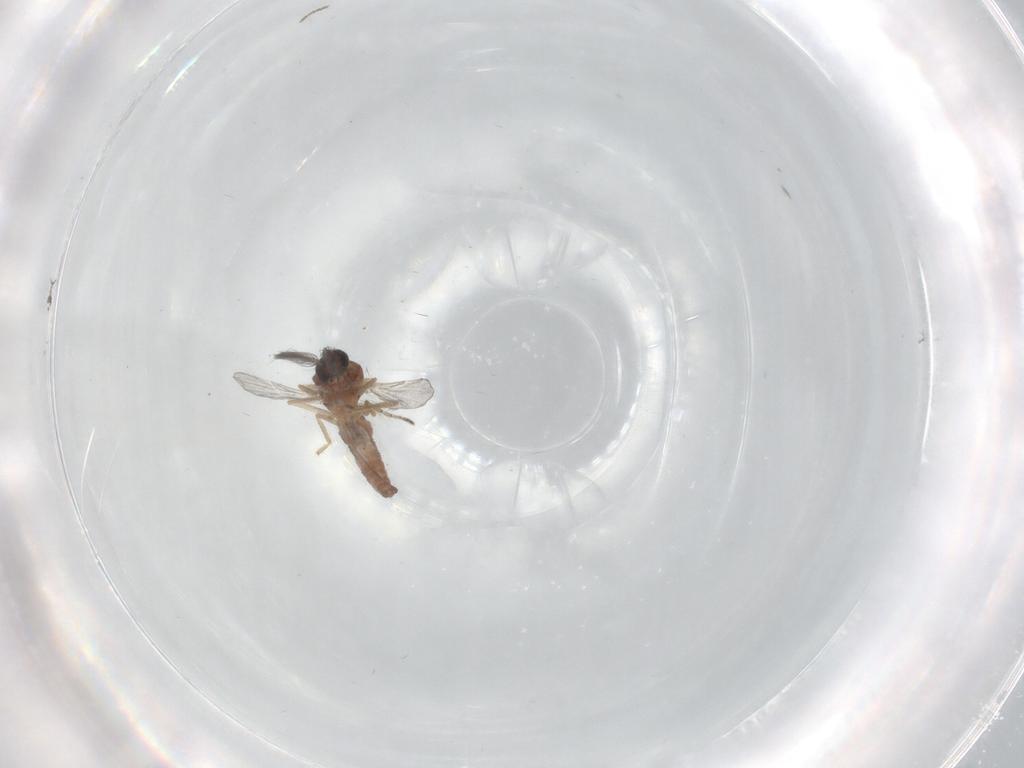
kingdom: Animalia
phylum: Arthropoda
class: Insecta
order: Diptera
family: Ceratopogonidae
